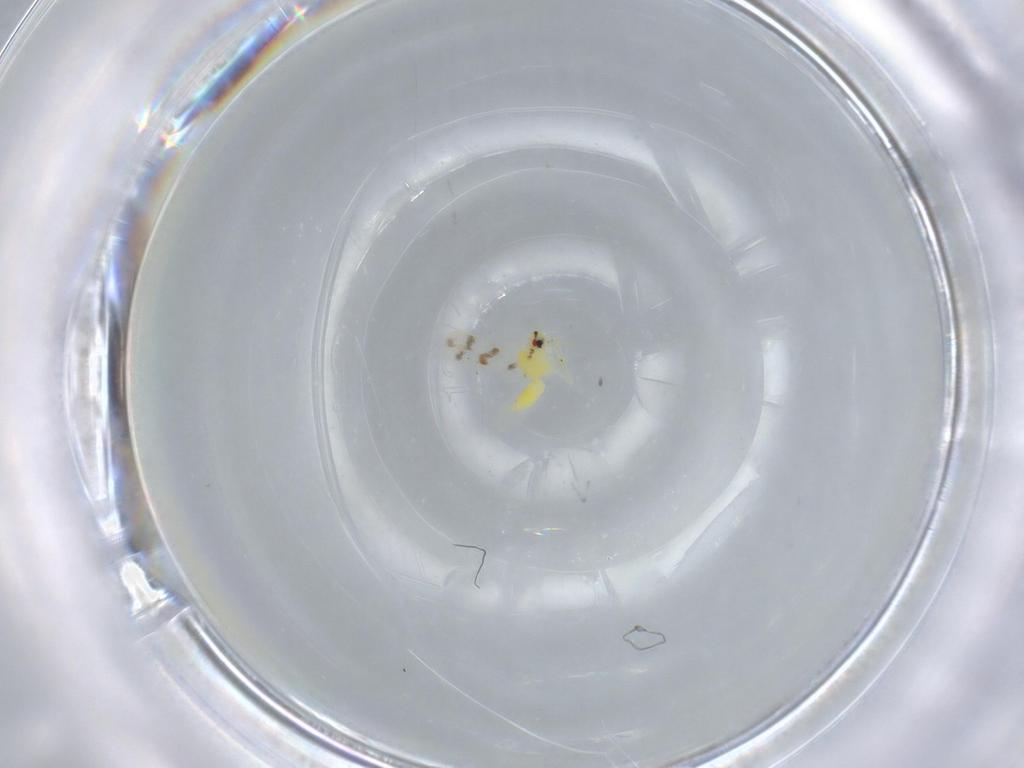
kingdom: Animalia
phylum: Arthropoda
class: Insecta
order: Hemiptera
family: Aleyrodidae
